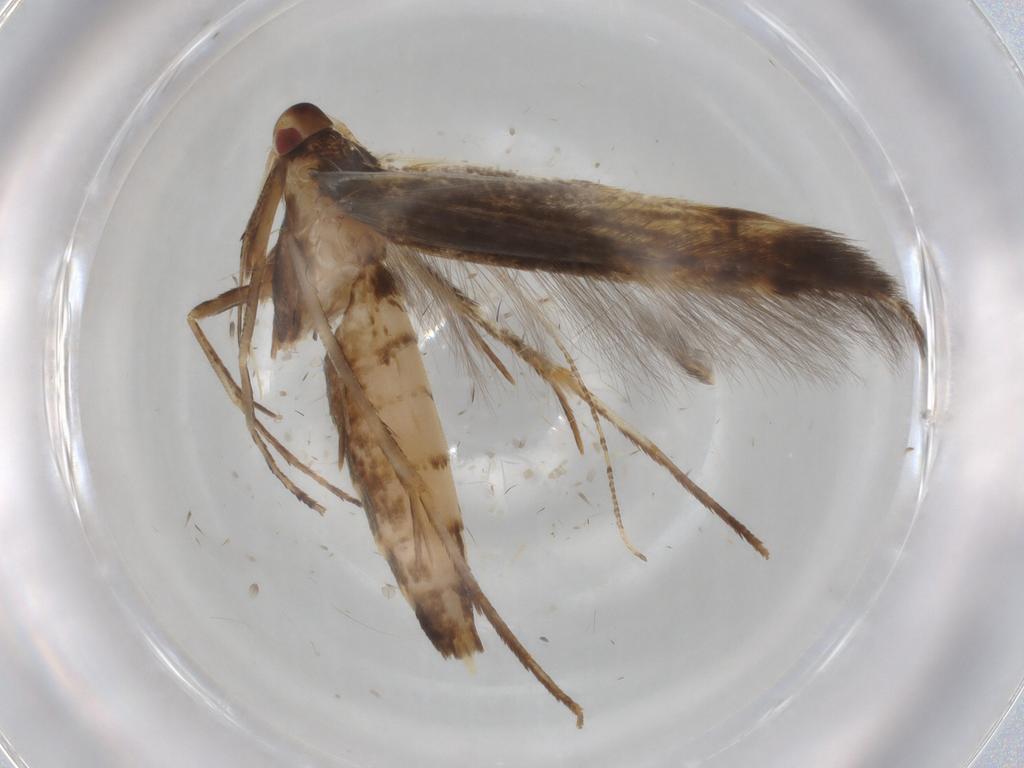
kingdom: Animalia
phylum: Arthropoda
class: Insecta
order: Lepidoptera
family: Cosmopterigidae
